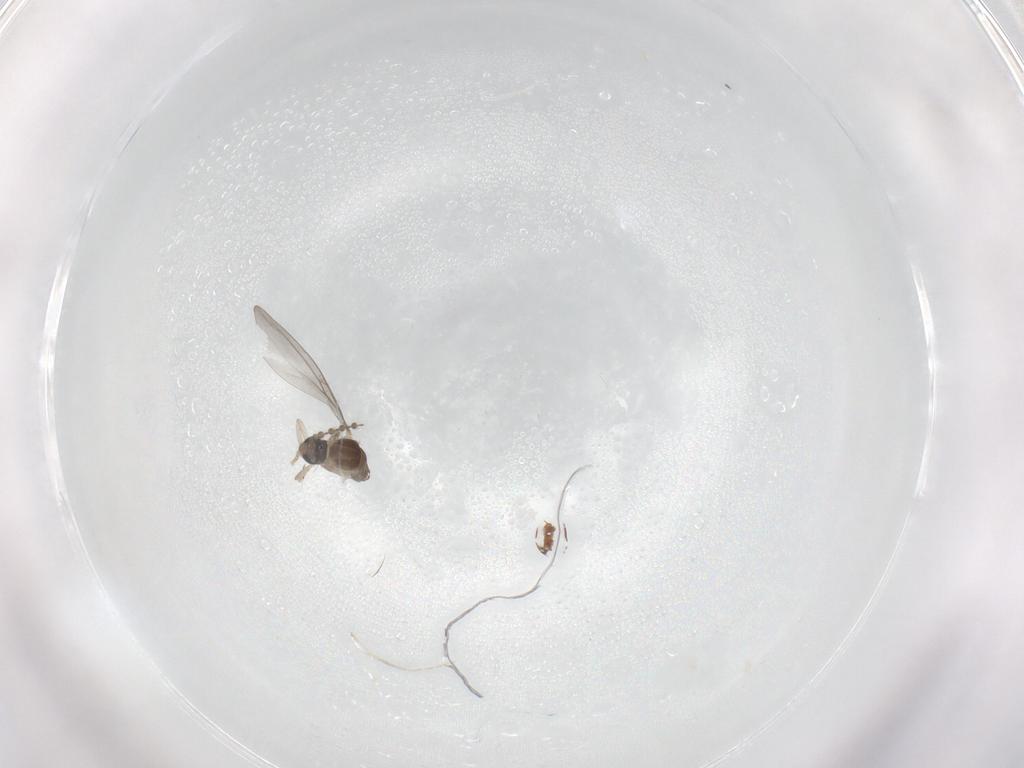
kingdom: Animalia
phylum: Arthropoda
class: Insecta
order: Diptera
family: Cecidomyiidae
